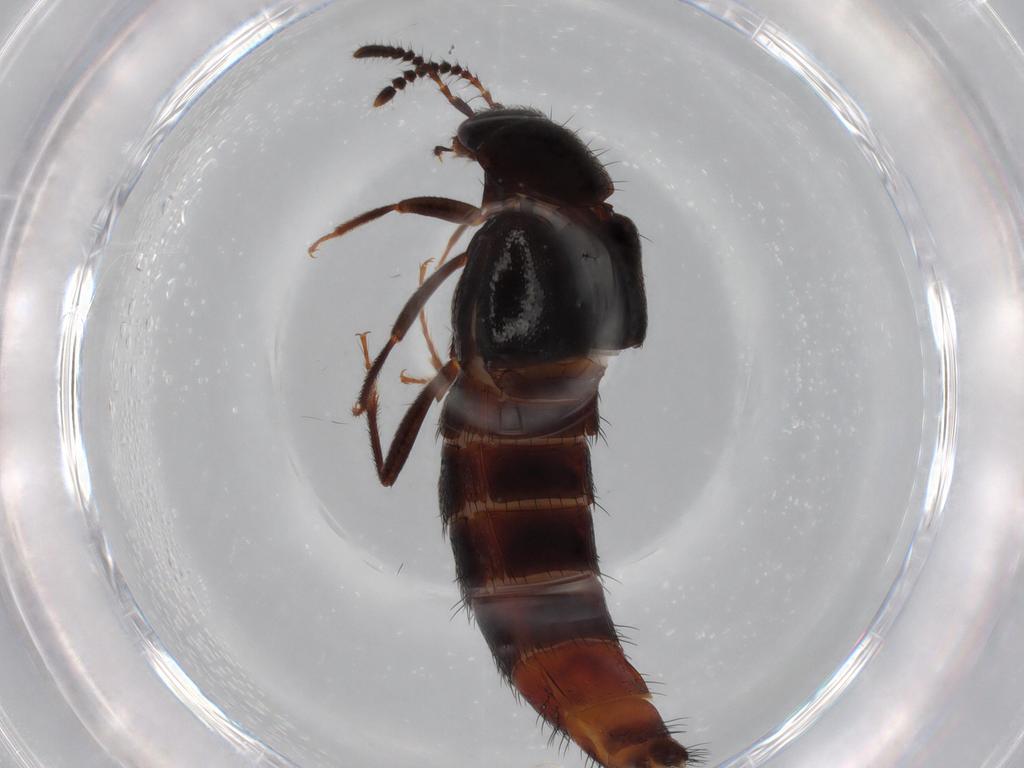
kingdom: Animalia
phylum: Arthropoda
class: Insecta
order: Coleoptera
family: Staphylinidae
